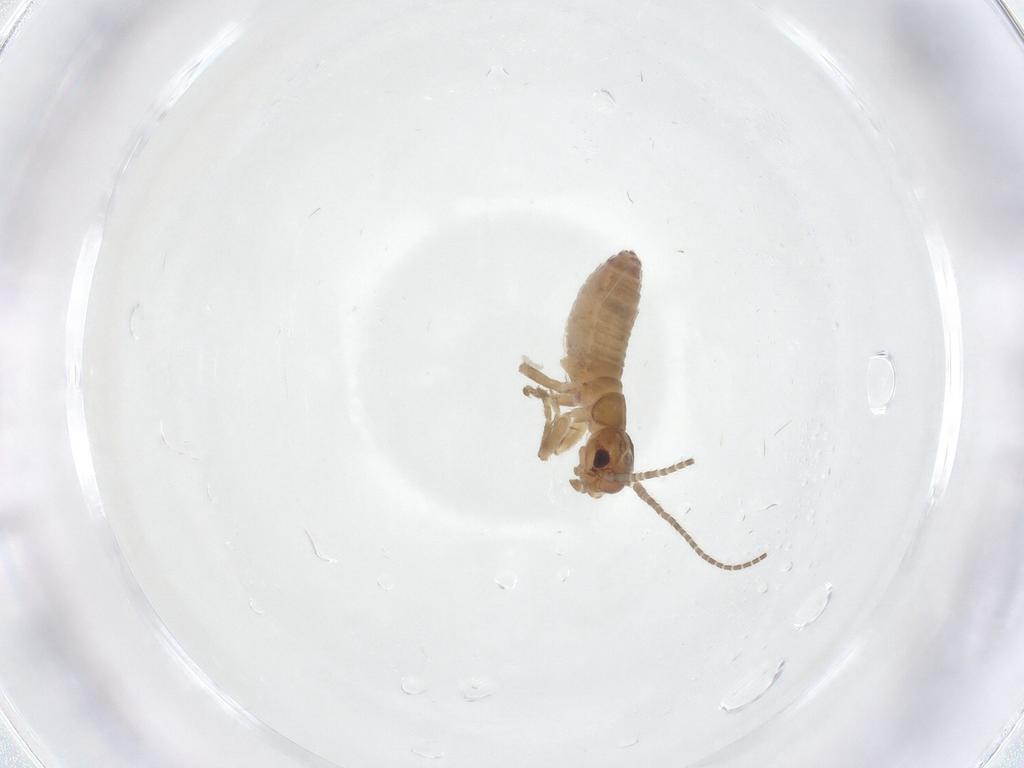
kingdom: Animalia
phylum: Arthropoda
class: Insecta
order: Orthoptera
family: Gryllidae
